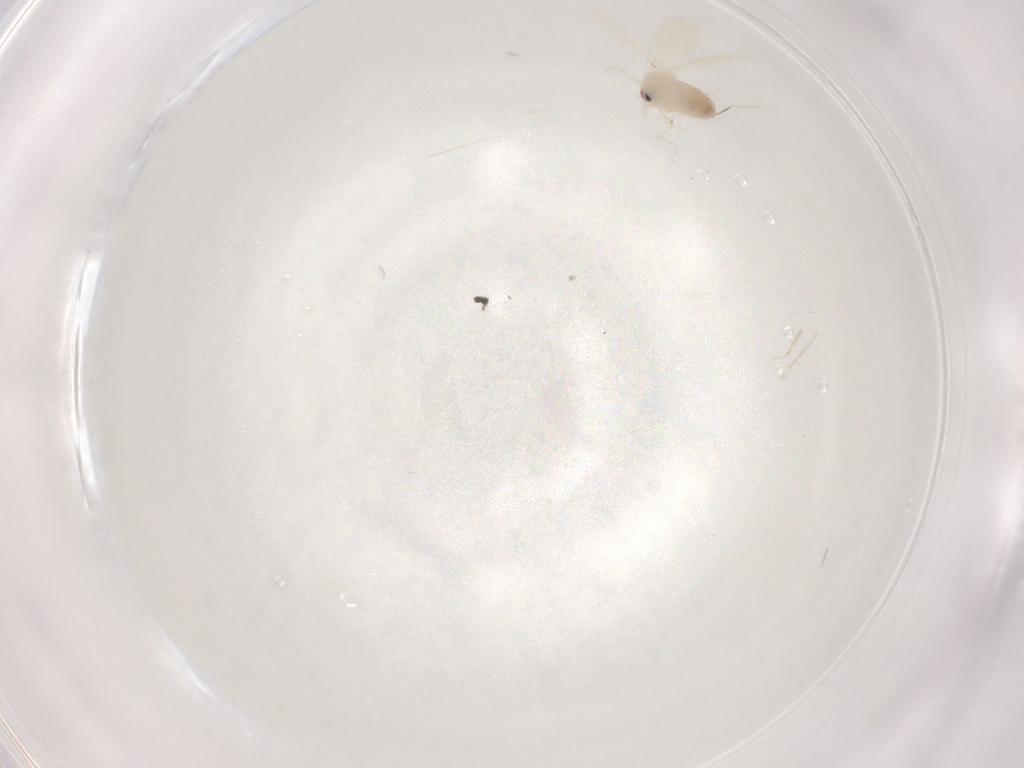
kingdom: Animalia
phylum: Arthropoda
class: Insecta
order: Hemiptera
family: Aleyrodidae
